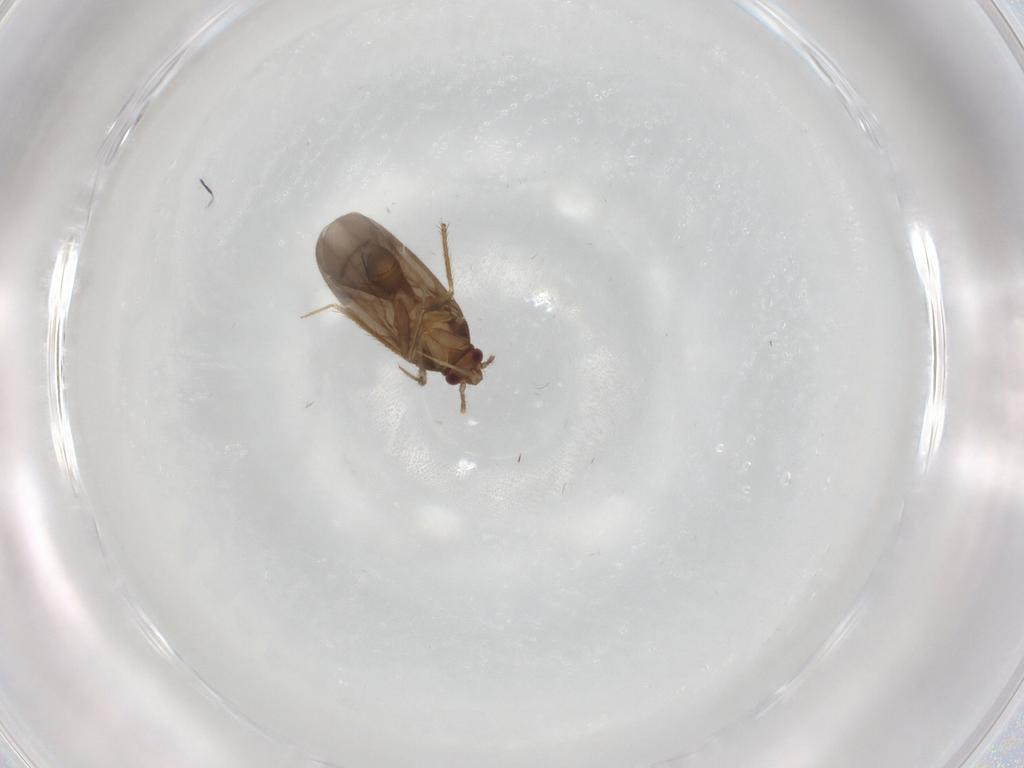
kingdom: Animalia
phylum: Arthropoda
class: Insecta
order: Hemiptera
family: Ceratocombidae
